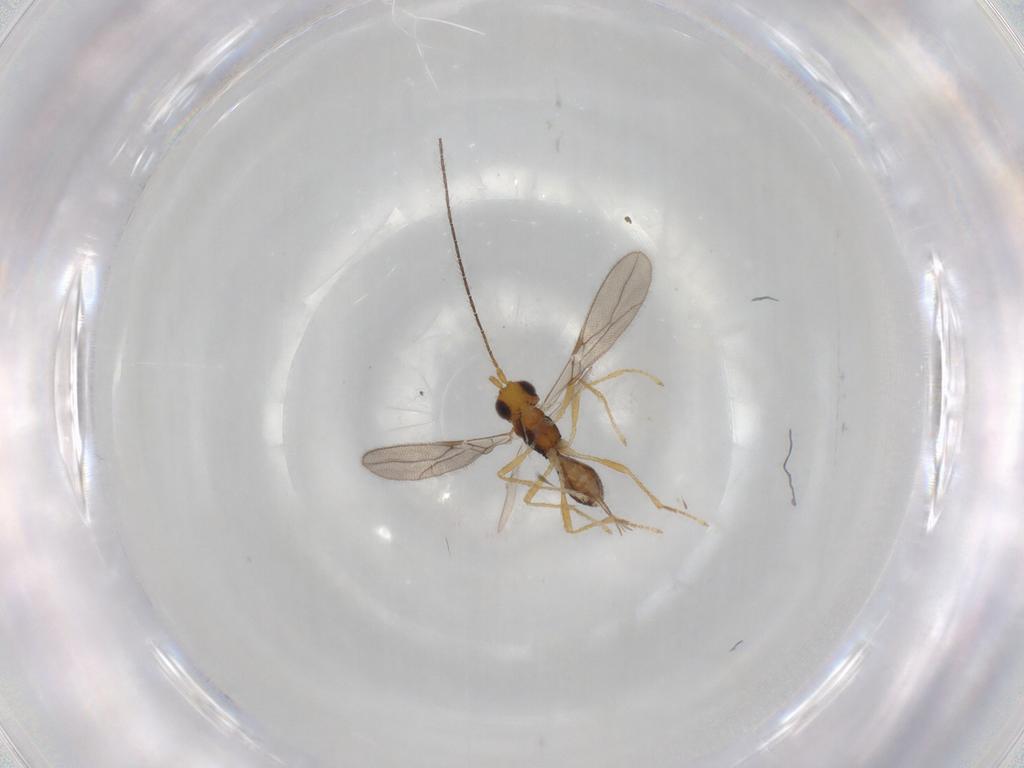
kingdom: Animalia
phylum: Arthropoda
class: Insecta
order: Hymenoptera
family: Braconidae
